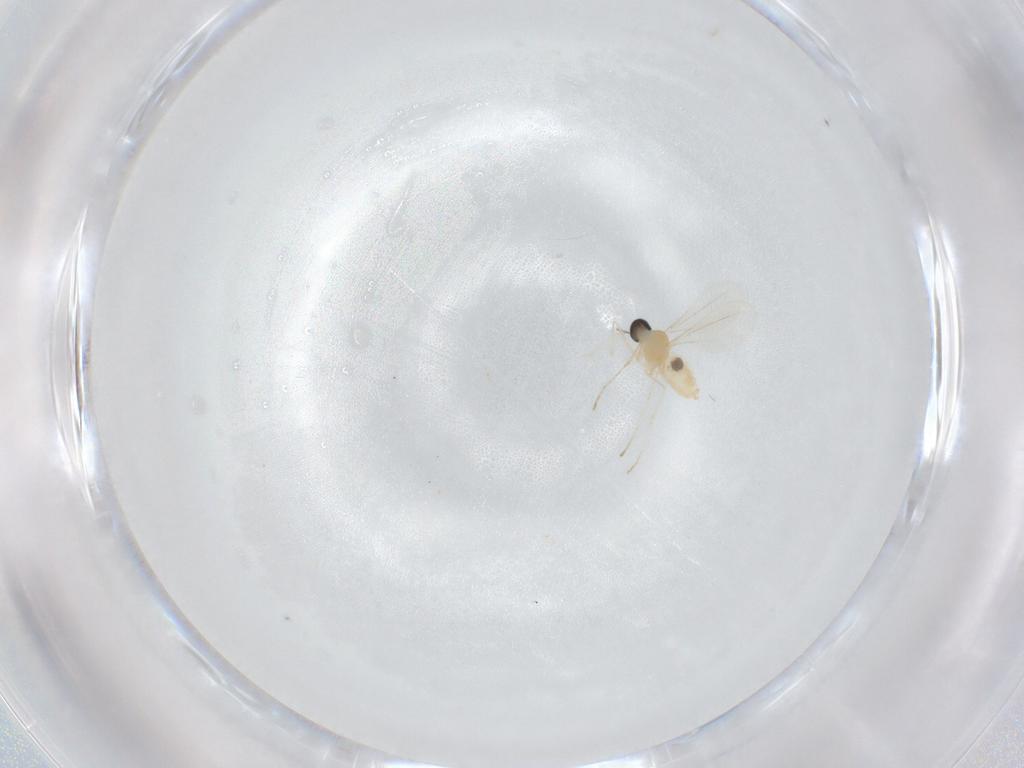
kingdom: Animalia
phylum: Arthropoda
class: Insecta
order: Diptera
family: Cecidomyiidae
